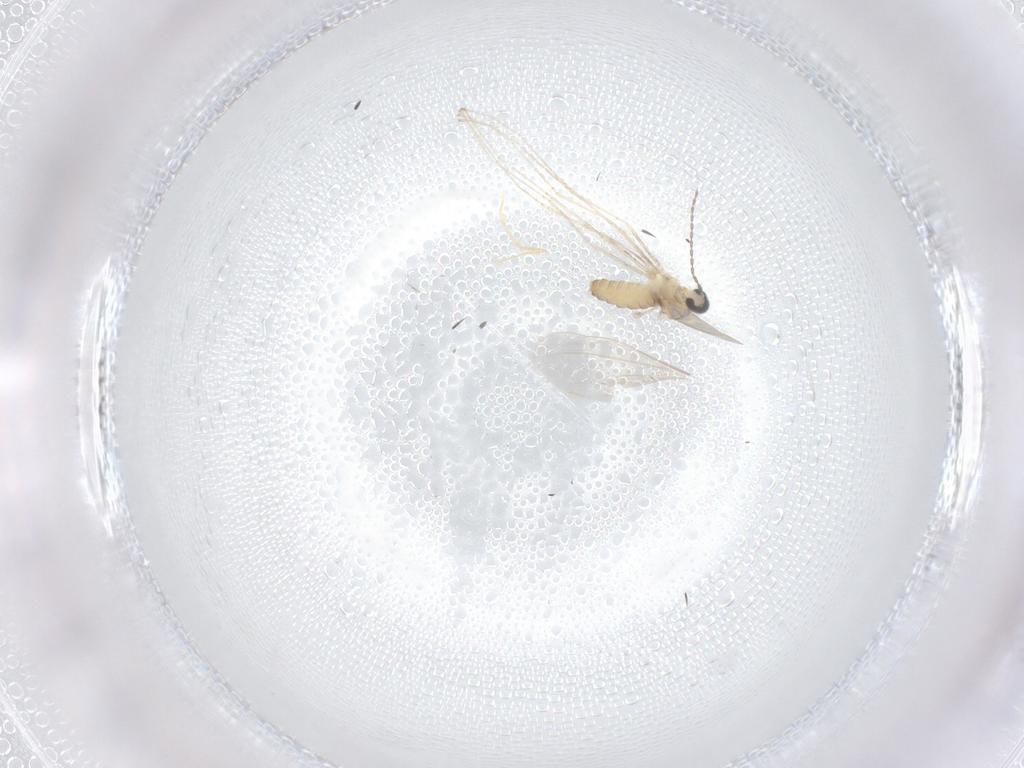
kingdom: Animalia
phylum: Arthropoda
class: Insecta
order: Diptera
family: Cecidomyiidae
